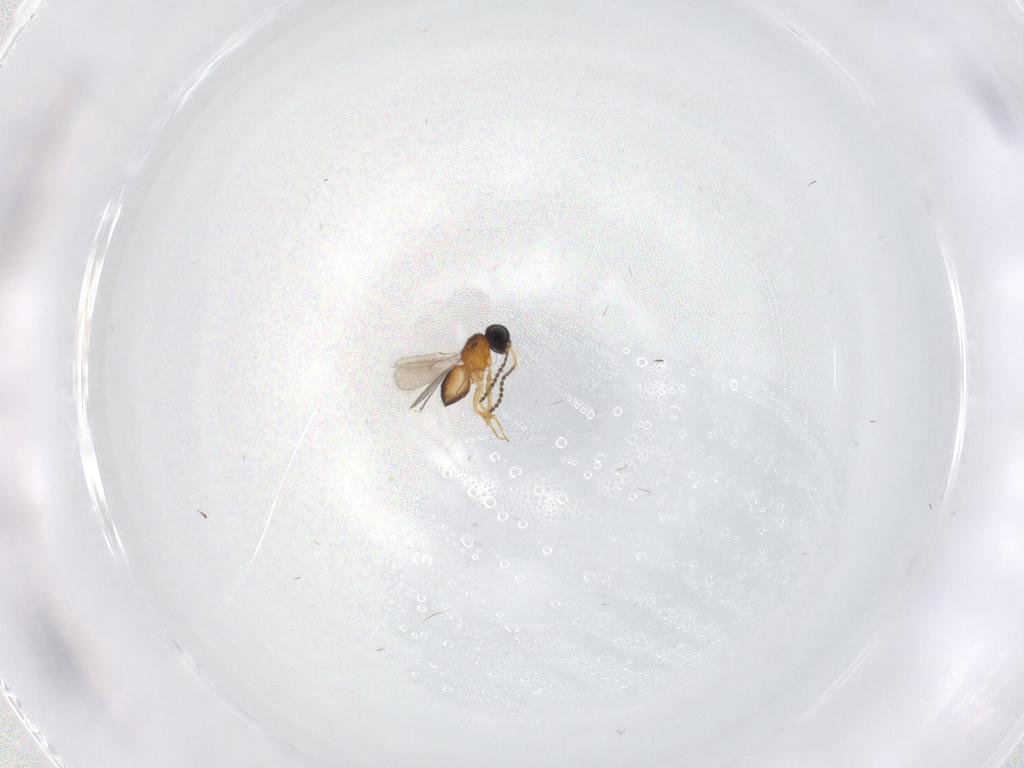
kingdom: Animalia
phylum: Arthropoda
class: Insecta
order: Hymenoptera
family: Scelionidae
